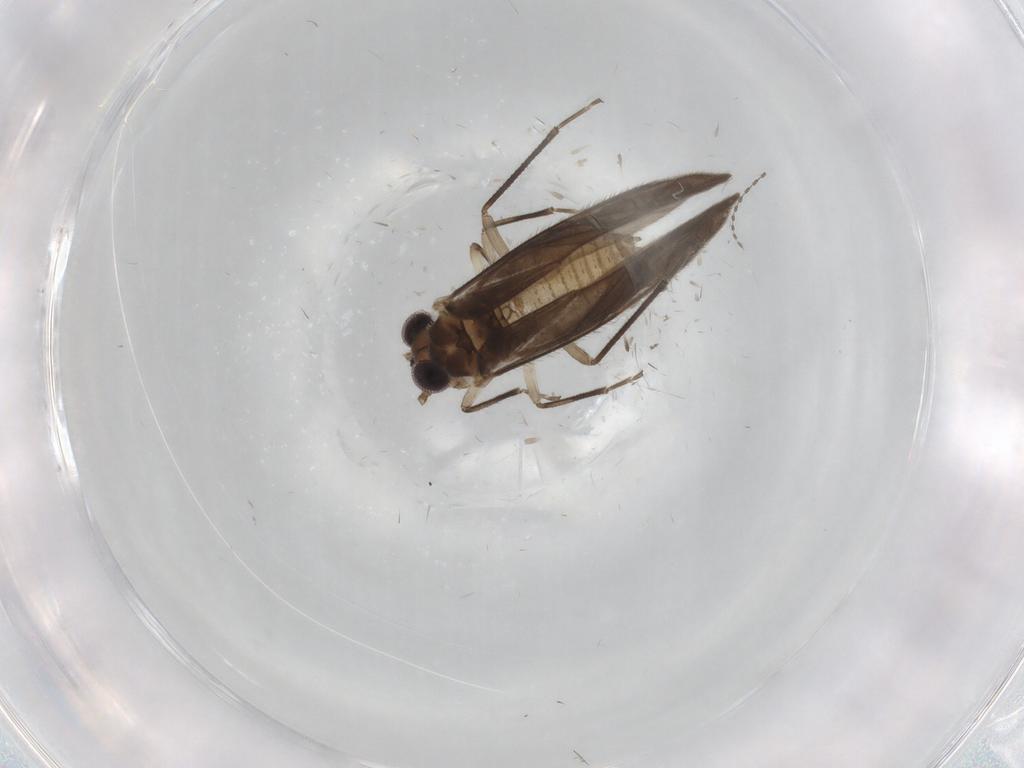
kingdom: Animalia
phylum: Arthropoda
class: Insecta
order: Psocodea
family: Caeciliusidae
